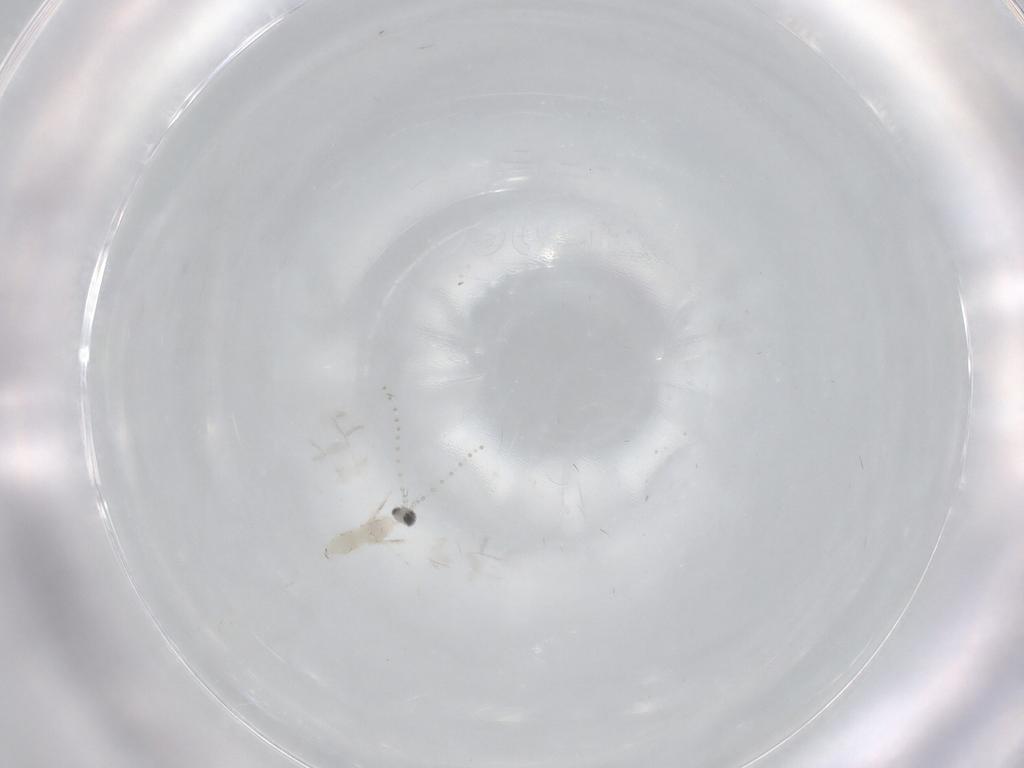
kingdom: Animalia
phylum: Arthropoda
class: Insecta
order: Diptera
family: Cecidomyiidae
